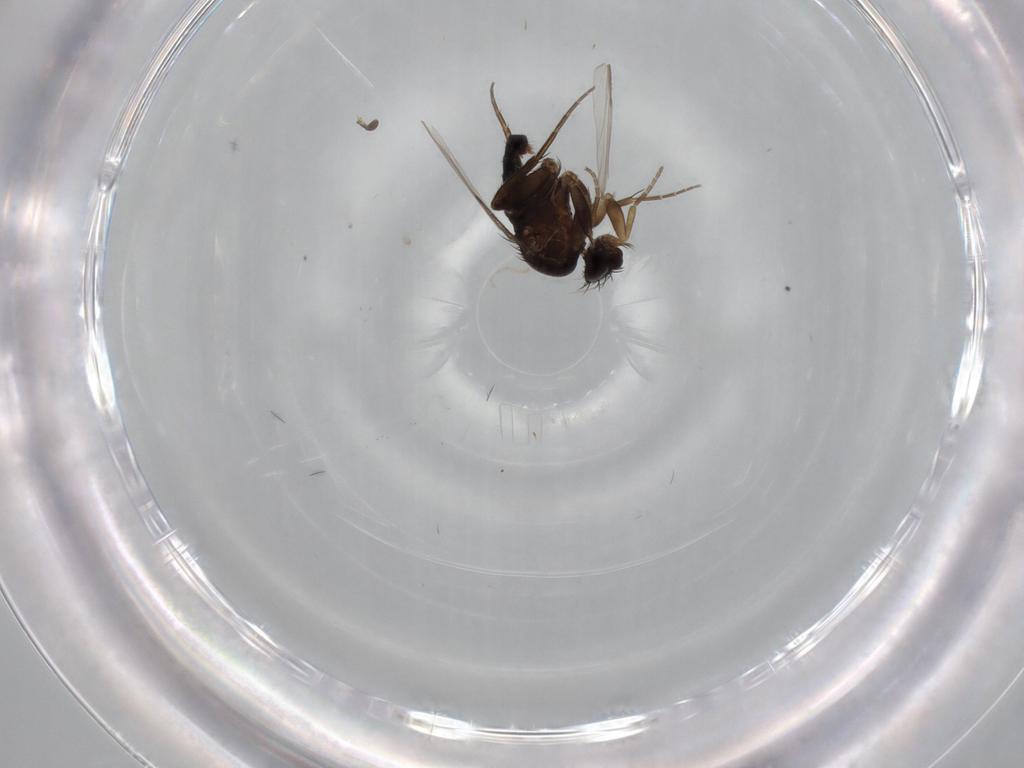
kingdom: Animalia
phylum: Arthropoda
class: Insecta
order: Diptera
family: Phoridae
